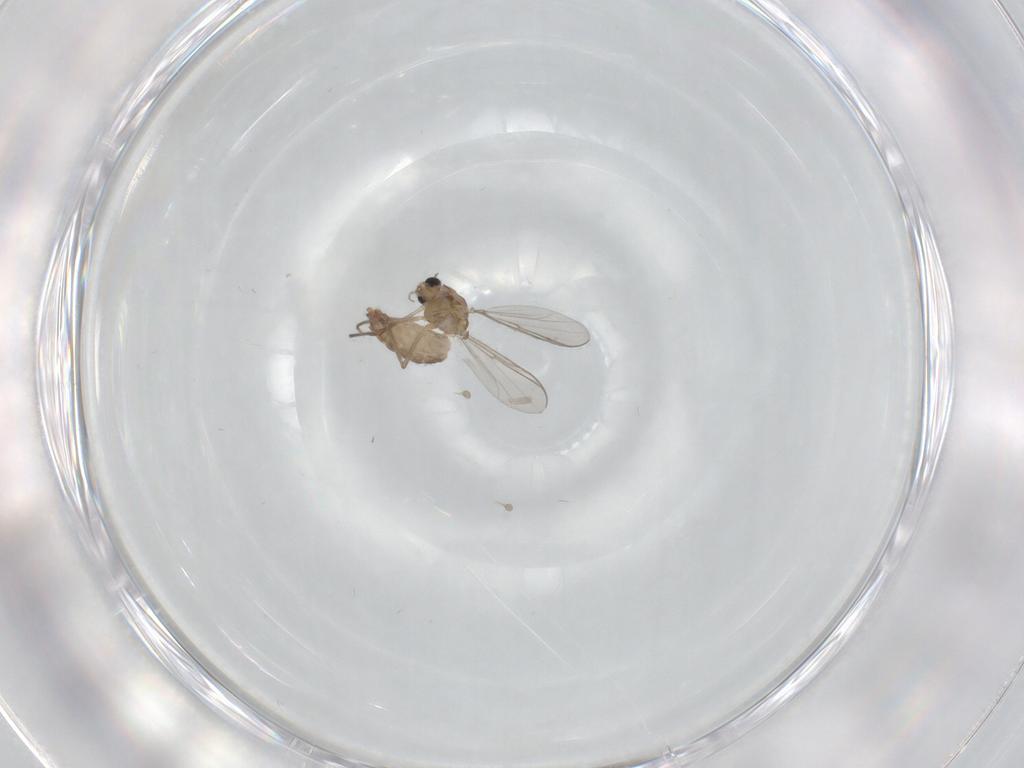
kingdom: Animalia
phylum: Arthropoda
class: Insecta
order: Diptera
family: Chironomidae
